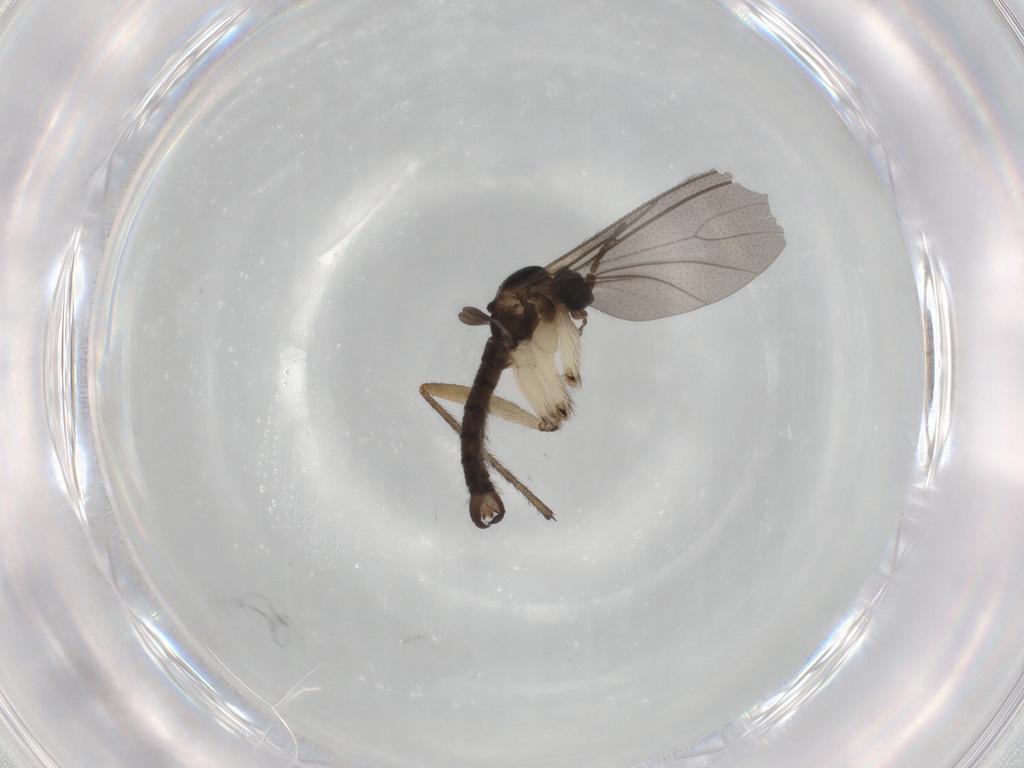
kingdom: Animalia
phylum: Arthropoda
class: Insecta
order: Diptera
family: Sciaridae
